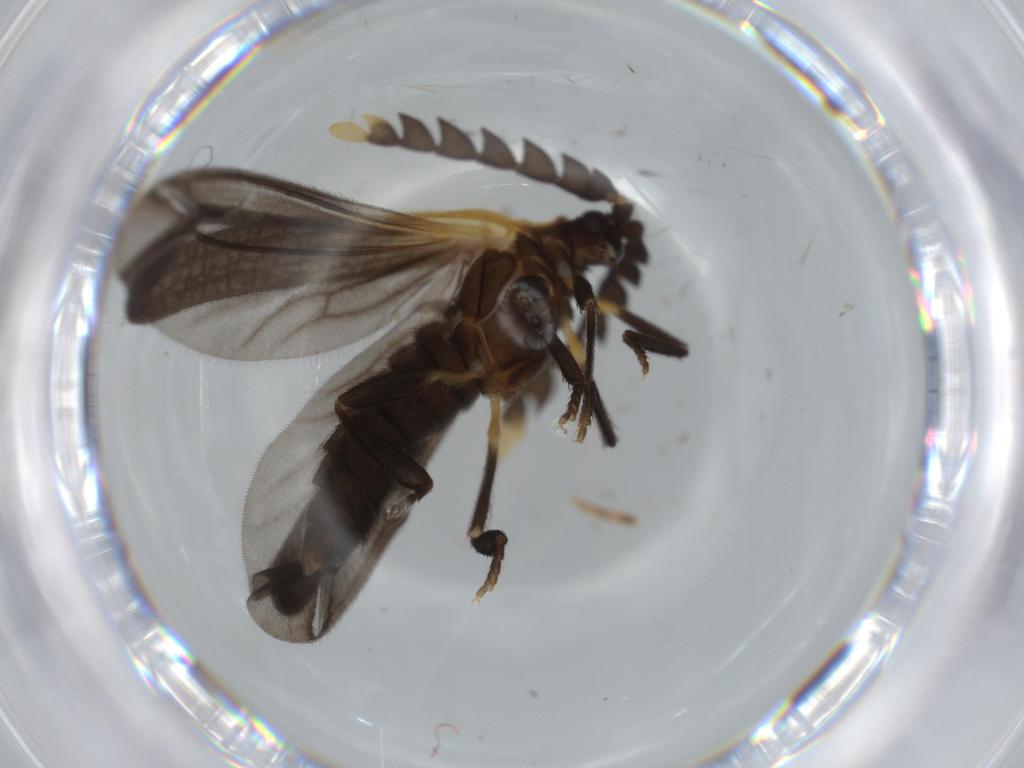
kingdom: Animalia
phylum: Arthropoda
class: Insecta
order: Coleoptera
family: Lycidae
